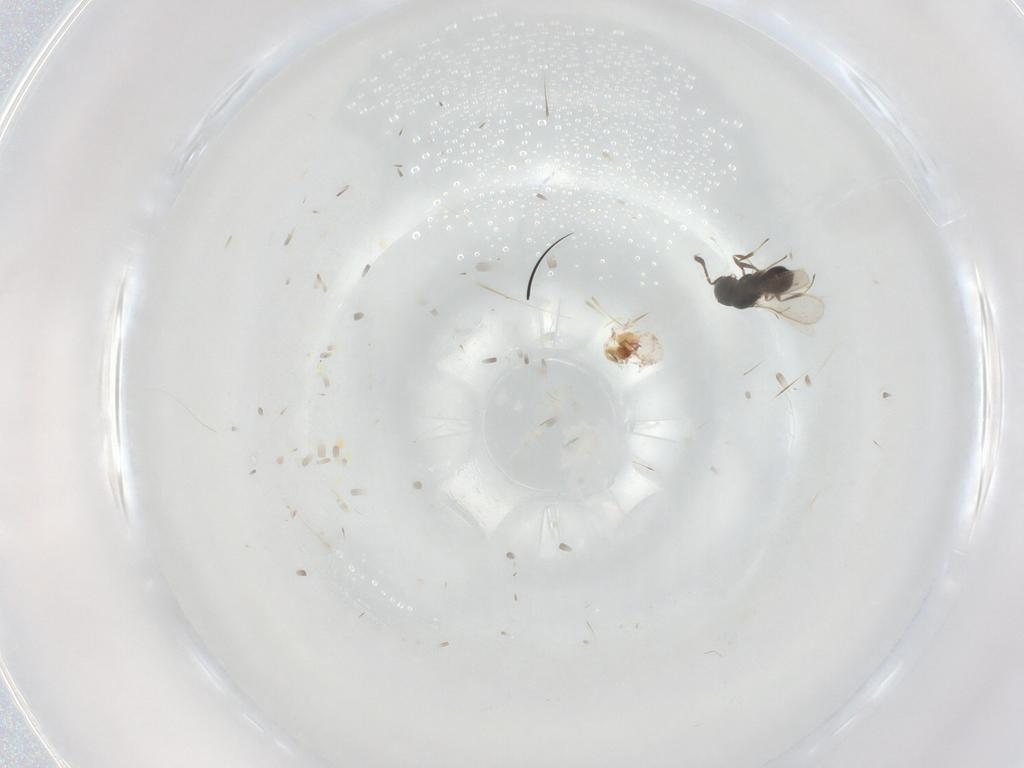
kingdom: Animalia
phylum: Arthropoda
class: Insecta
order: Hymenoptera
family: Scelionidae
